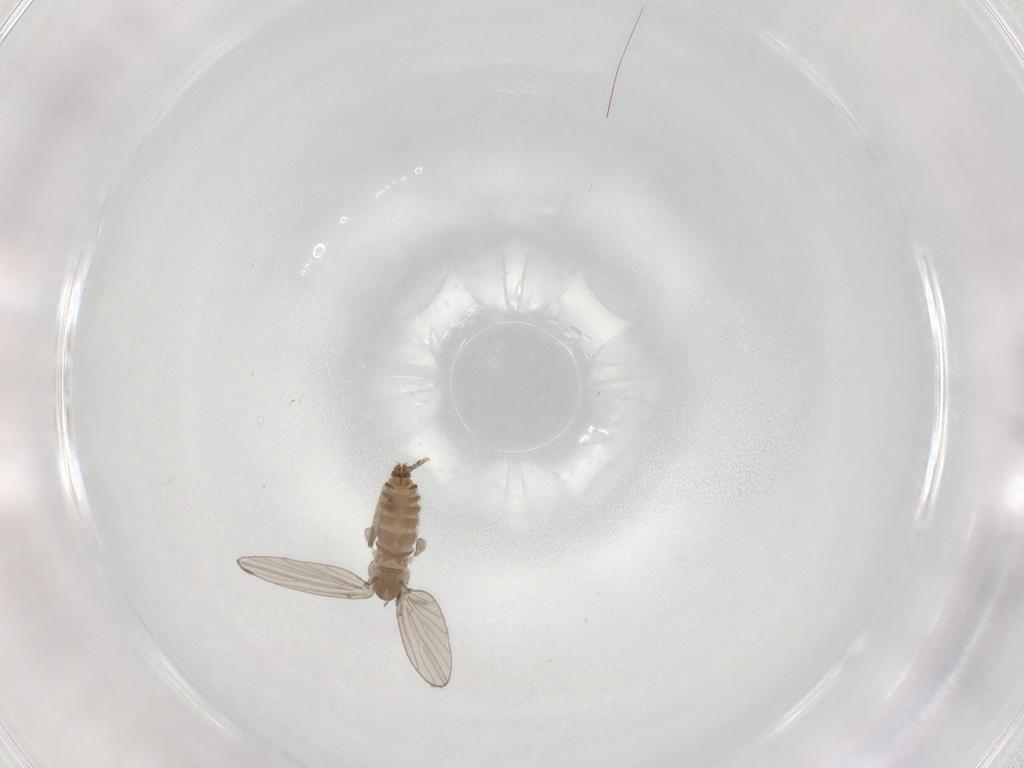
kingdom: Animalia
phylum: Arthropoda
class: Insecta
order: Diptera
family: Psychodidae
